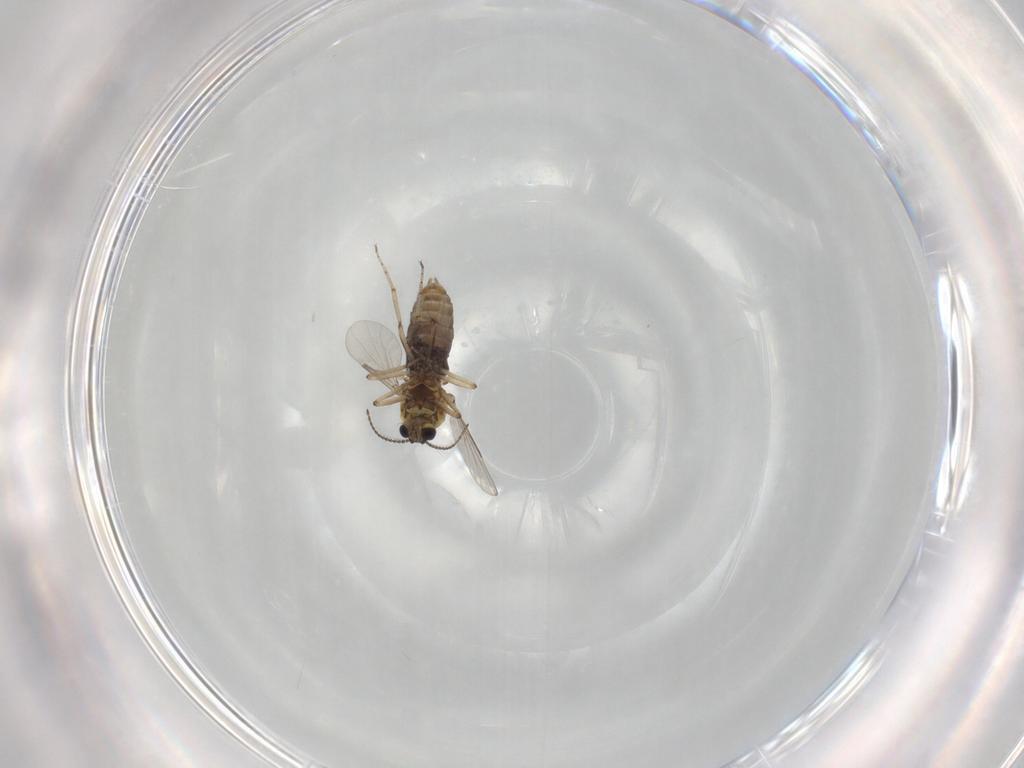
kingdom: Animalia
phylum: Arthropoda
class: Insecta
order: Diptera
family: Ceratopogonidae
